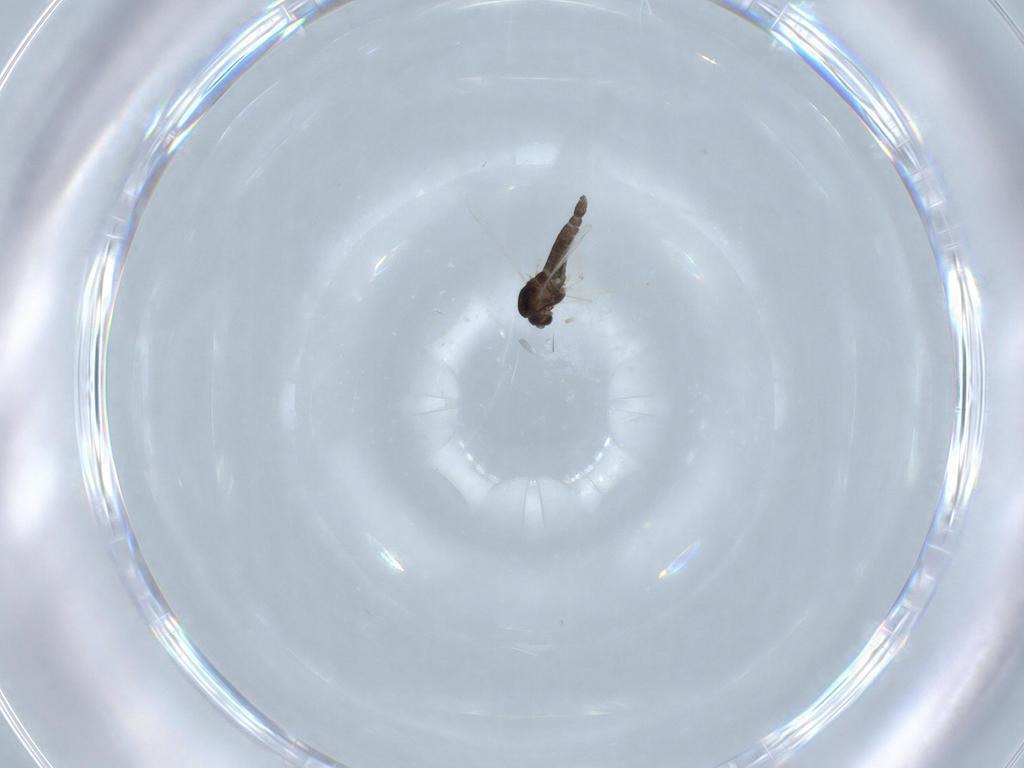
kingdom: Animalia
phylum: Arthropoda
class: Insecta
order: Diptera
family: Chironomidae
